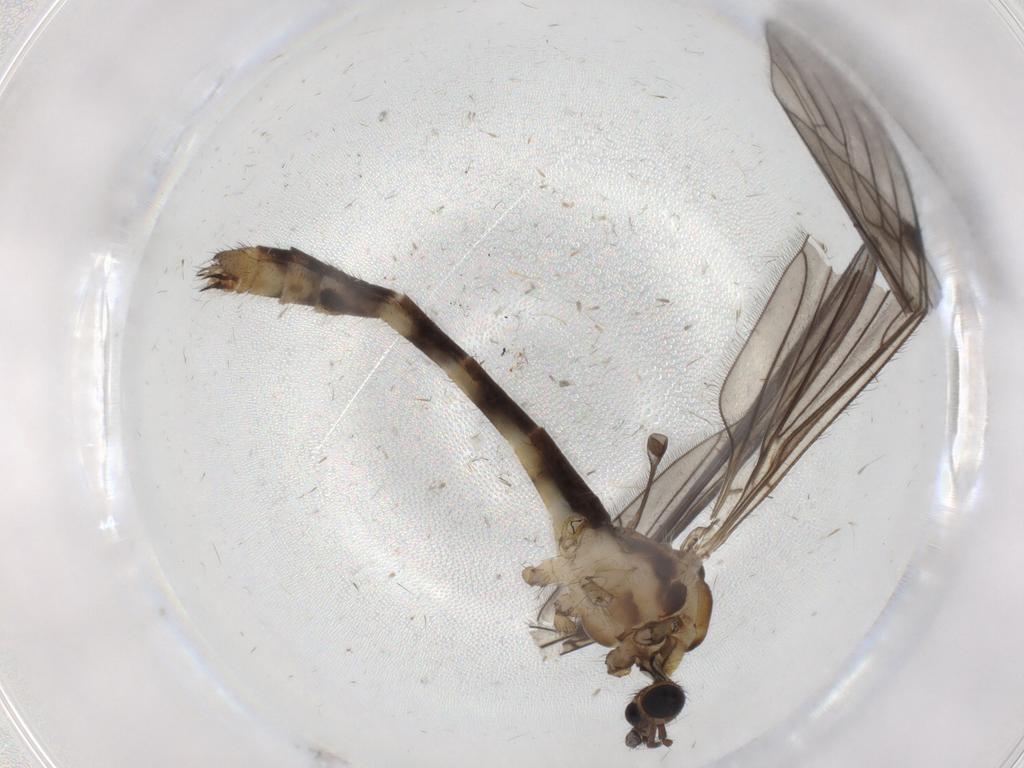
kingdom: Animalia
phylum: Arthropoda
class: Insecta
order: Diptera
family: Limoniidae
